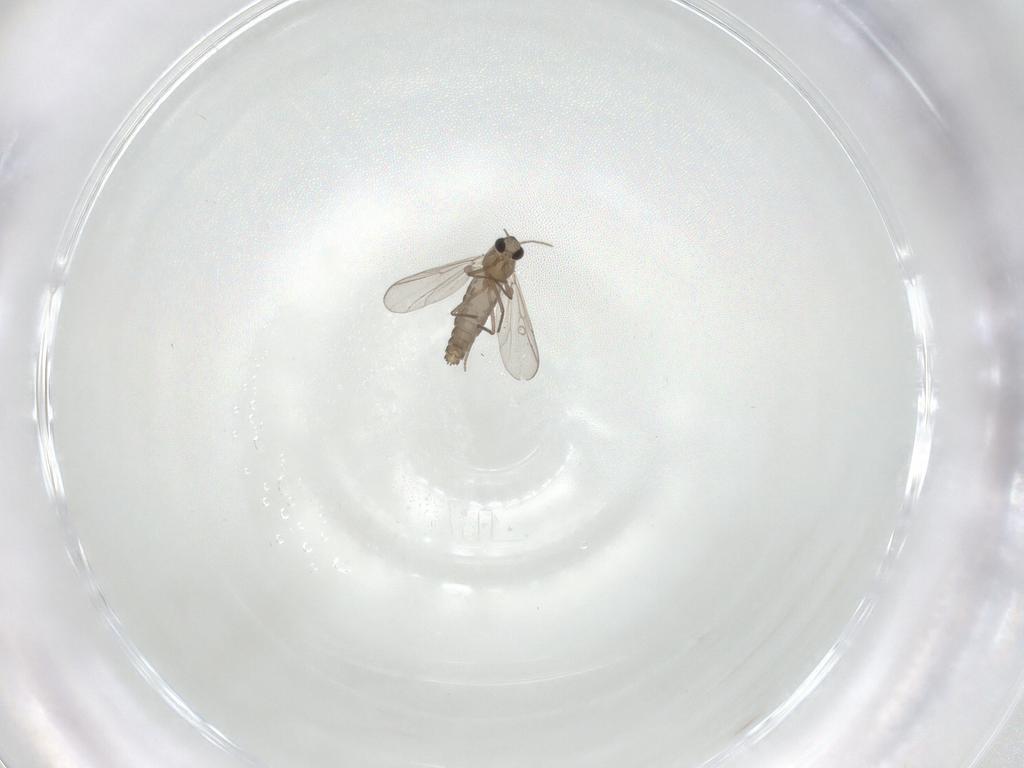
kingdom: Animalia
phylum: Arthropoda
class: Insecta
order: Diptera
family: Chironomidae
